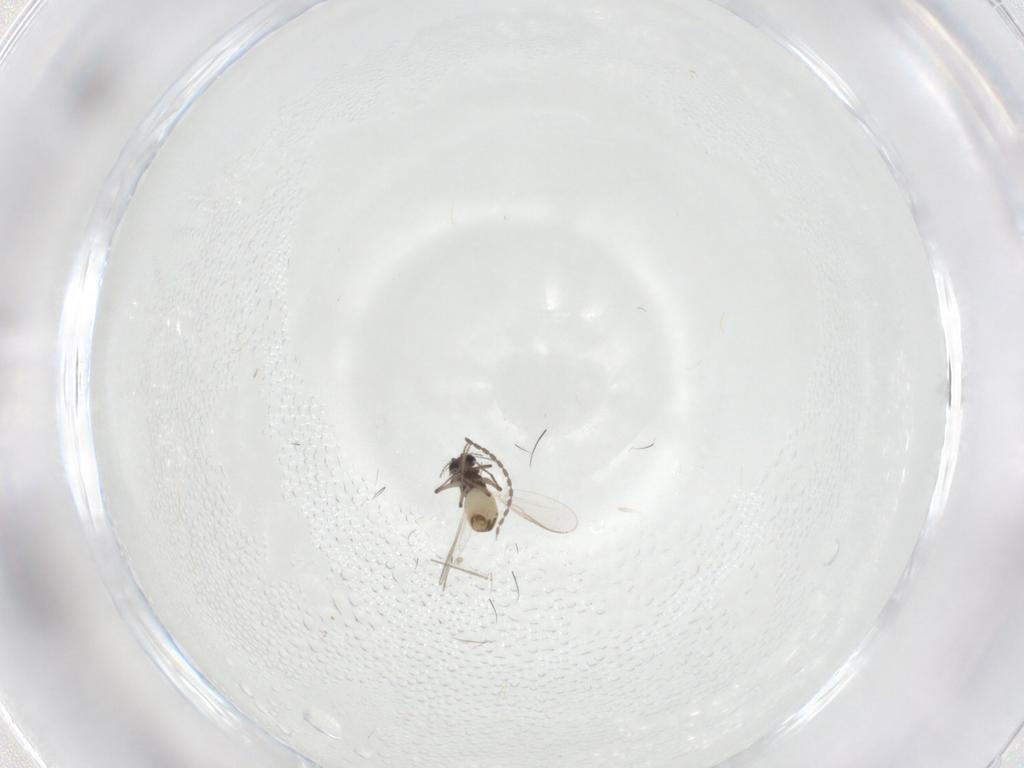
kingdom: Animalia
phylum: Arthropoda
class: Insecta
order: Diptera
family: Cecidomyiidae
